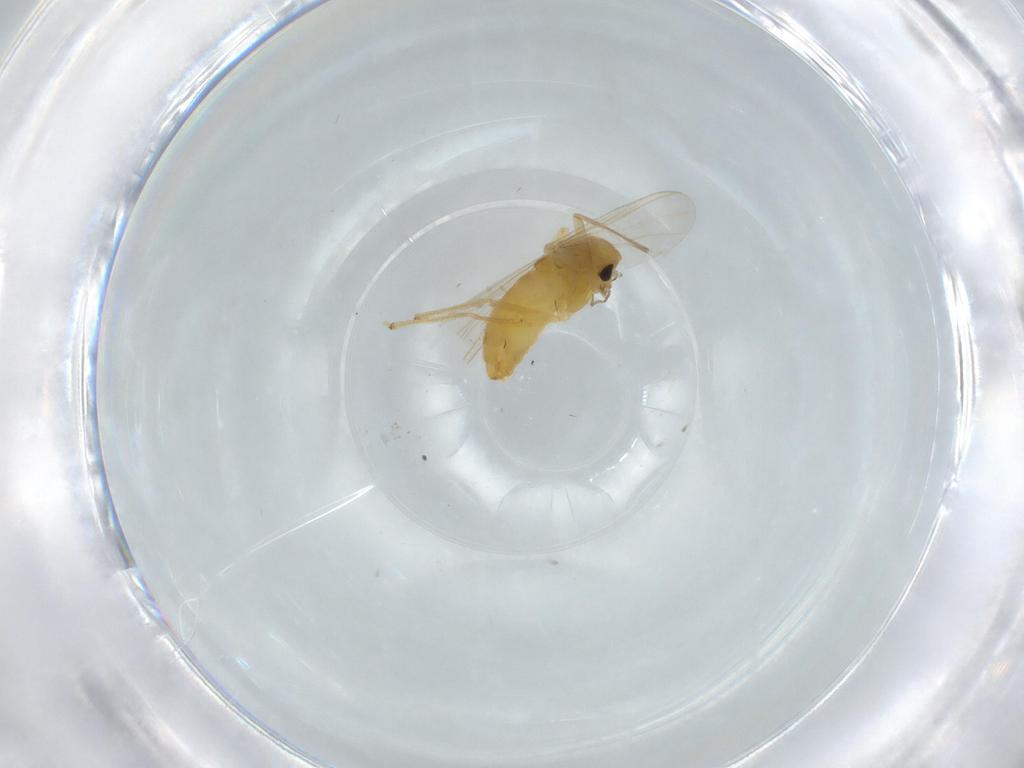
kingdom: Animalia
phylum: Arthropoda
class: Insecta
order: Diptera
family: Chironomidae
